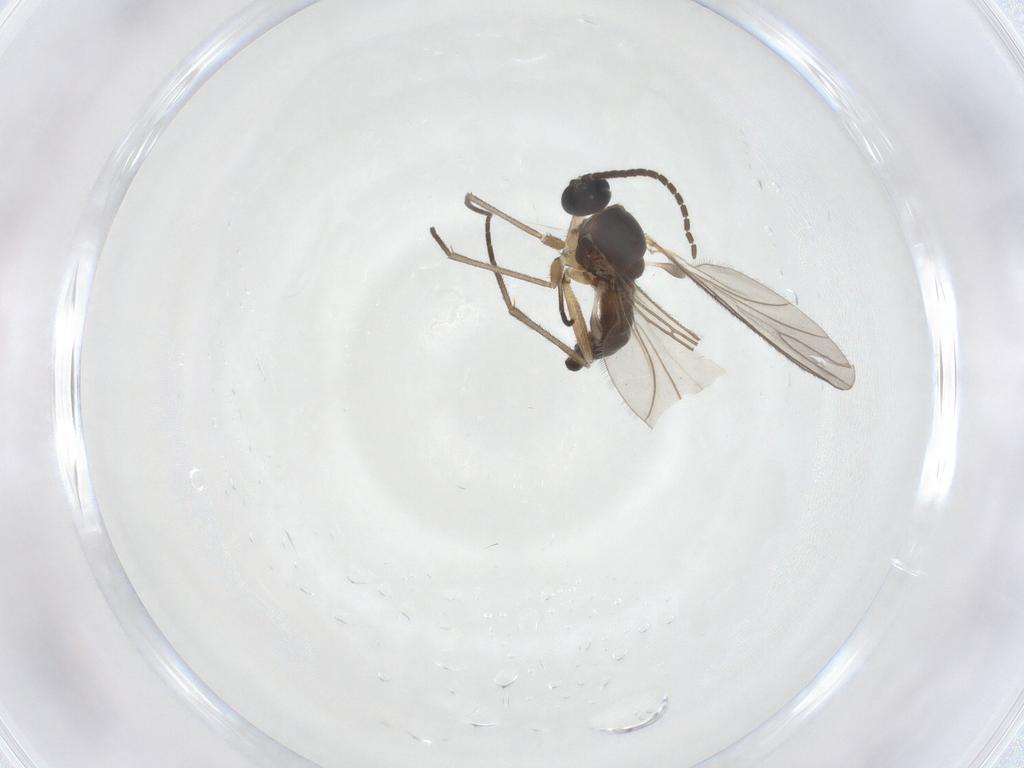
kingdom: Animalia
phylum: Arthropoda
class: Insecta
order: Diptera
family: Sciaridae
